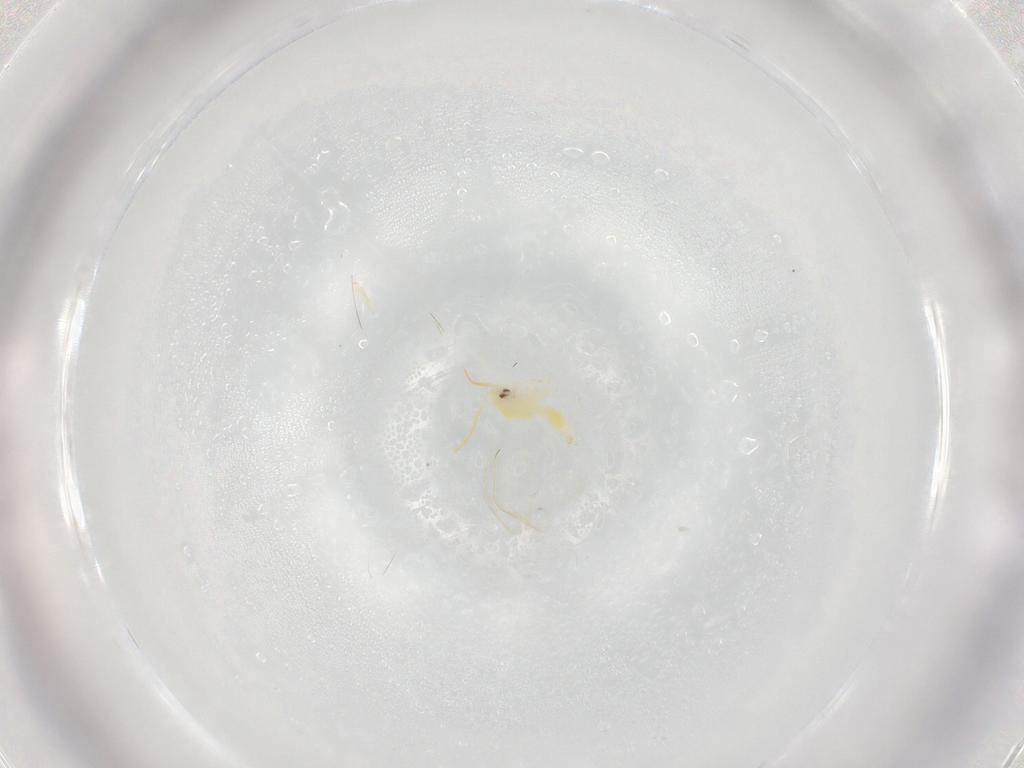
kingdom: Animalia
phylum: Arthropoda
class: Insecta
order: Hemiptera
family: Aleyrodidae
